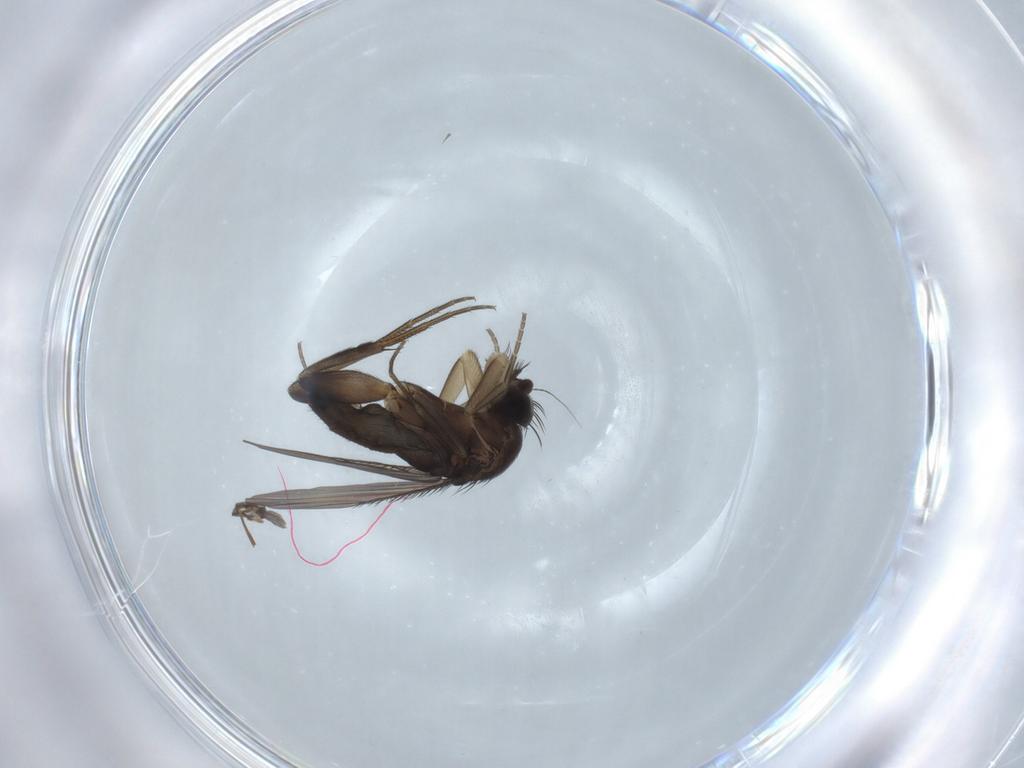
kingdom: Animalia
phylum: Arthropoda
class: Insecta
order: Diptera
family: Phoridae
